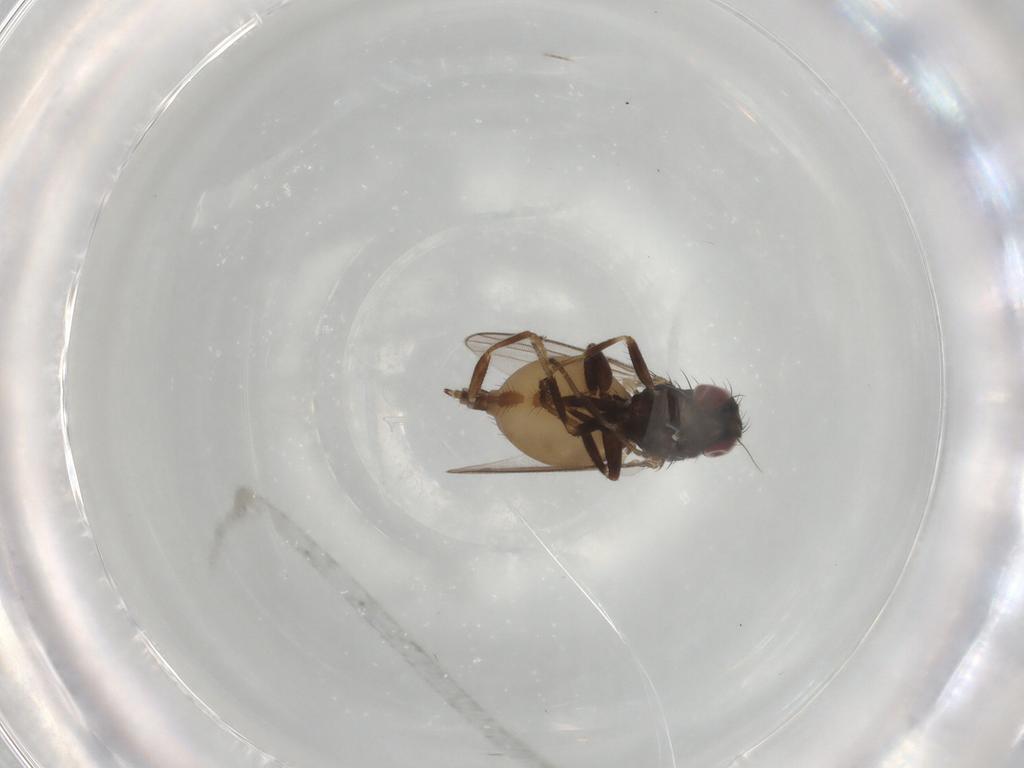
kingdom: Animalia
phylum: Arthropoda
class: Insecta
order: Diptera
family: Milichiidae
